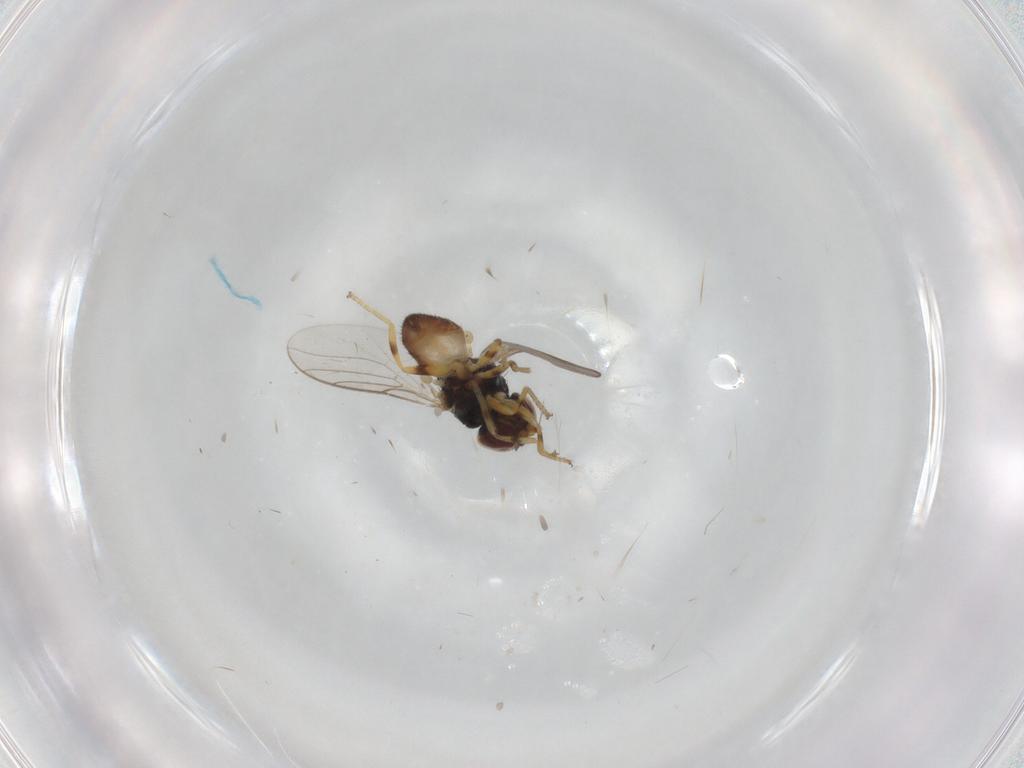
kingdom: Animalia
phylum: Arthropoda
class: Insecta
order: Diptera
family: Chloropidae
